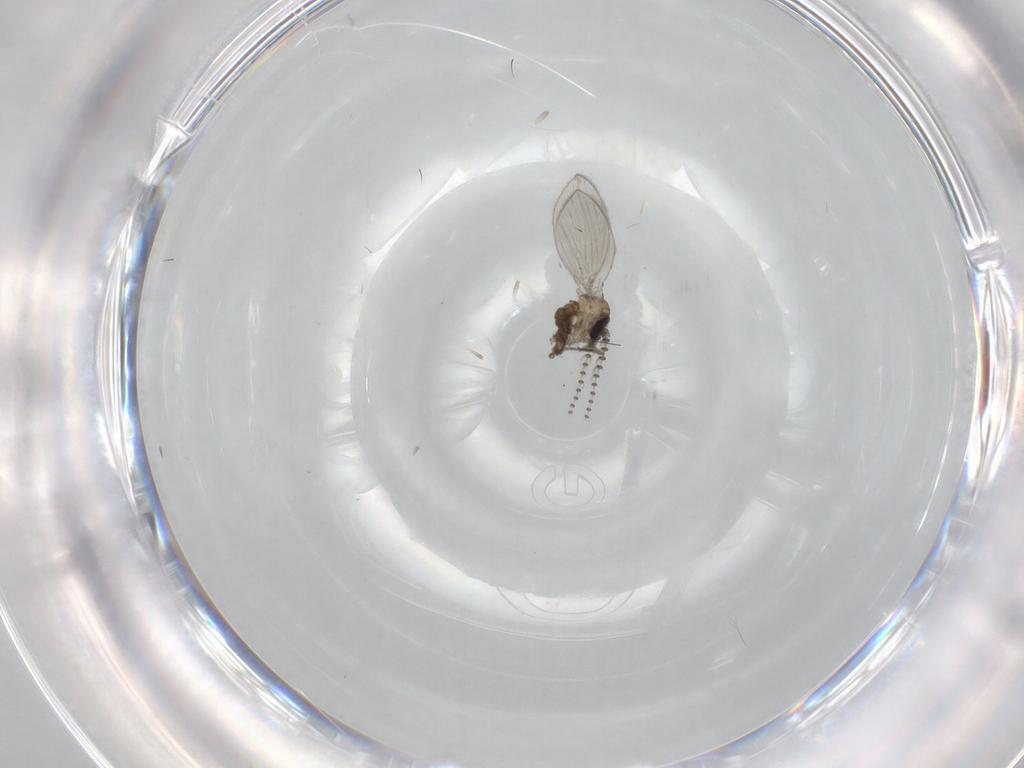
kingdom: Animalia
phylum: Arthropoda
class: Insecta
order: Diptera
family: Psychodidae
